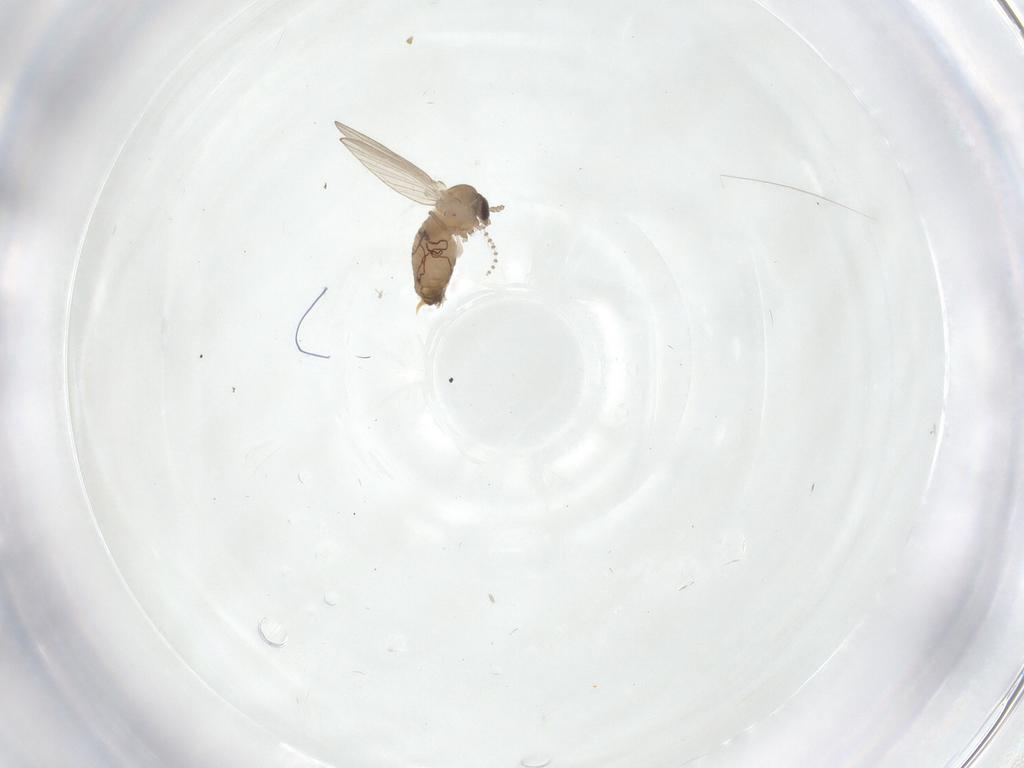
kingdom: Animalia
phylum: Arthropoda
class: Insecta
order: Diptera
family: Psychodidae
